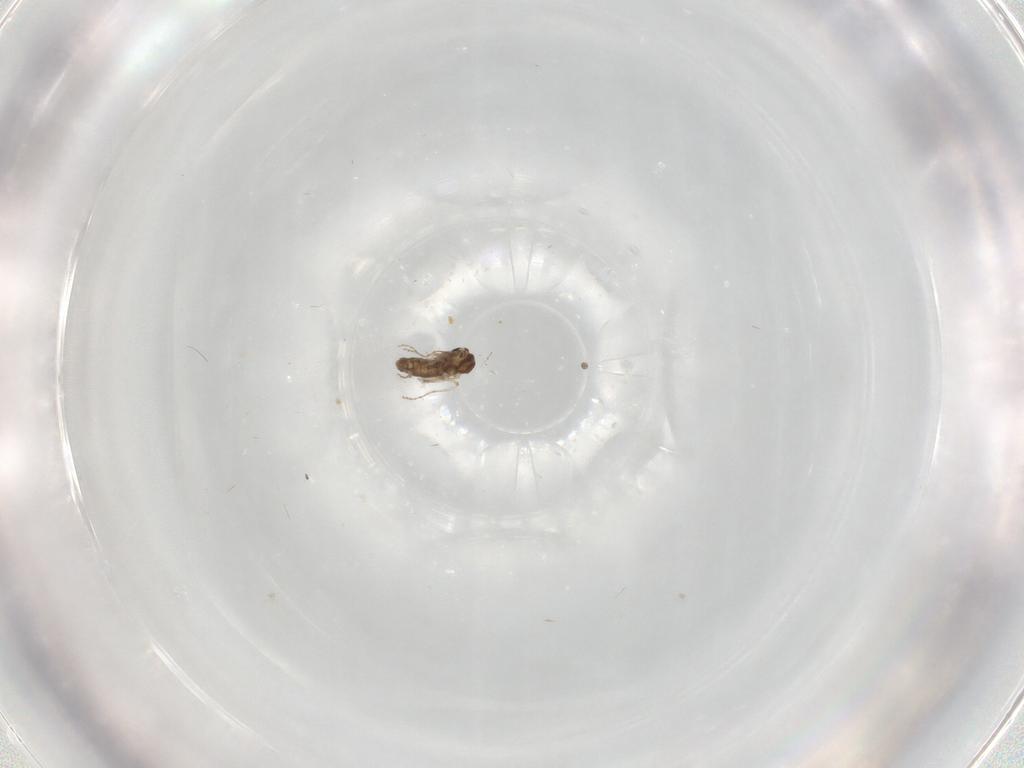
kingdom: Animalia
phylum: Arthropoda
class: Insecta
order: Diptera
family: Ceratopogonidae
